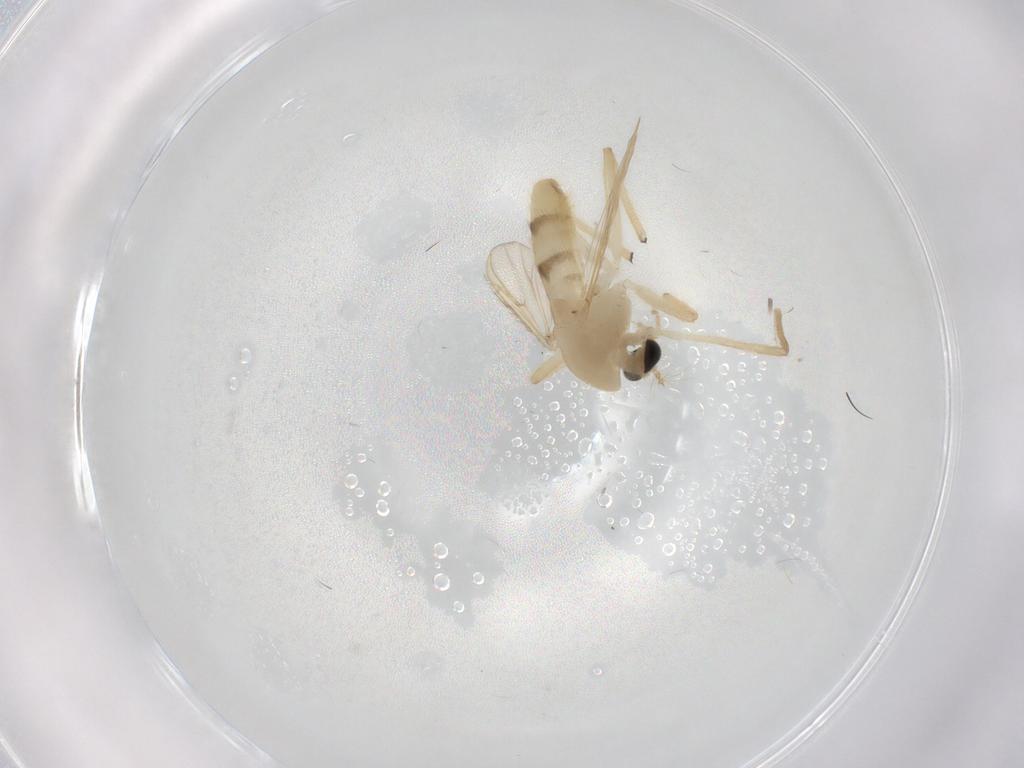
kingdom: Animalia
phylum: Arthropoda
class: Insecta
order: Diptera
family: Chironomidae
